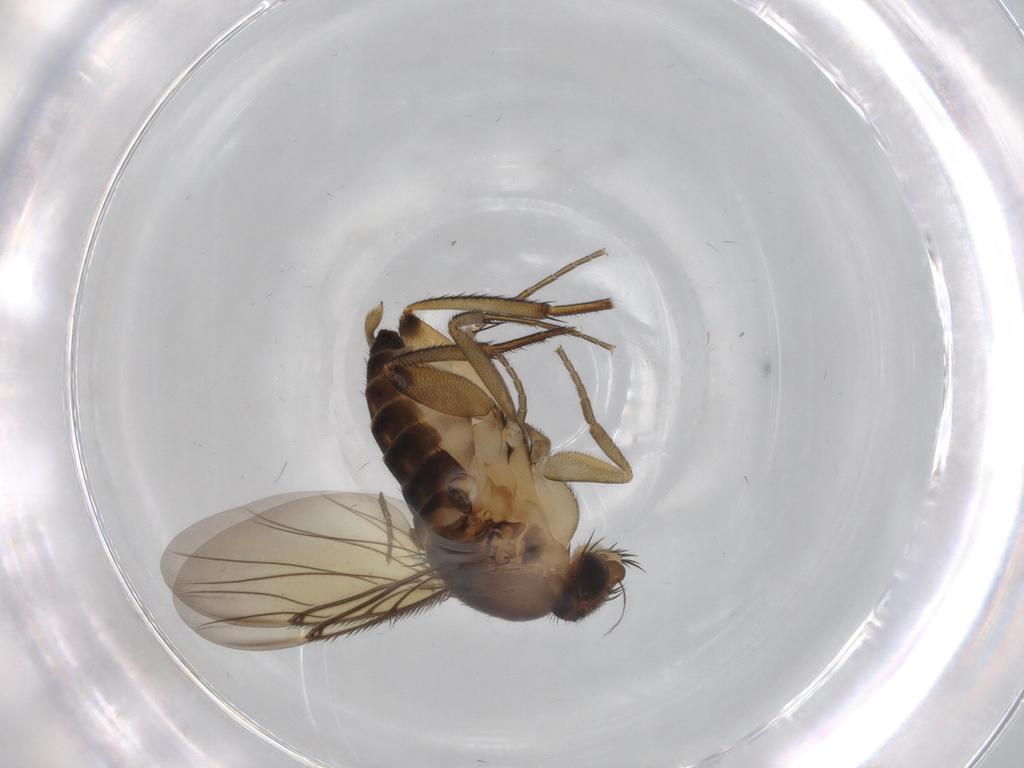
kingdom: Animalia
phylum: Arthropoda
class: Insecta
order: Diptera
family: Phoridae
